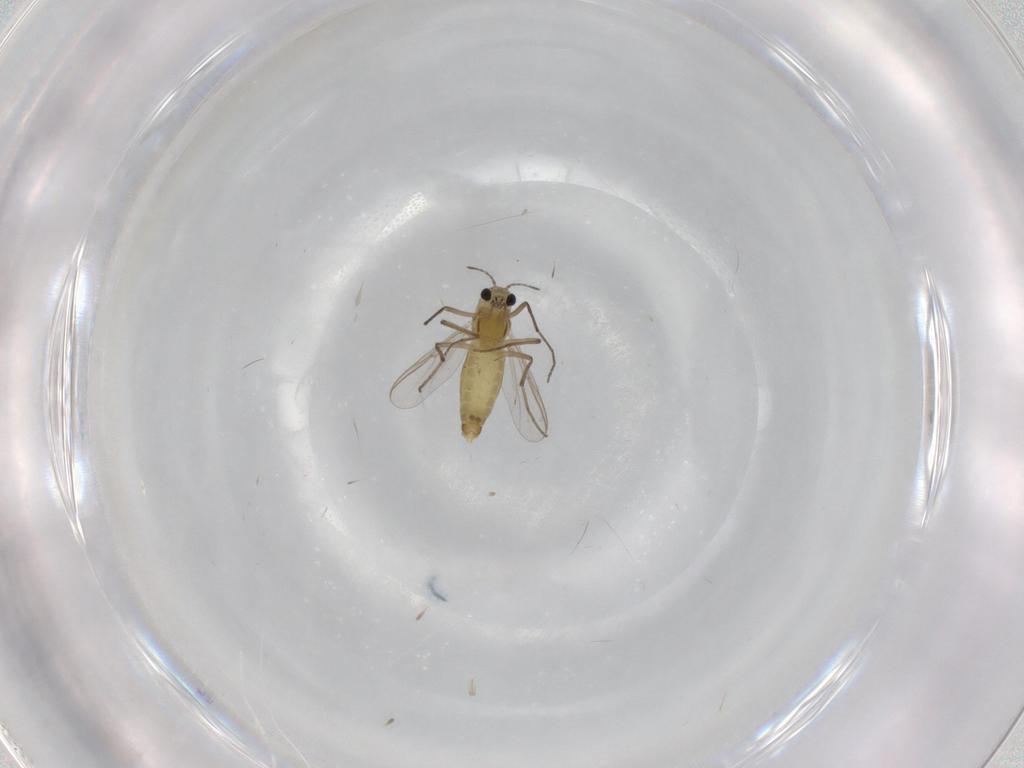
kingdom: Animalia
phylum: Arthropoda
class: Insecta
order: Diptera
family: Chironomidae
